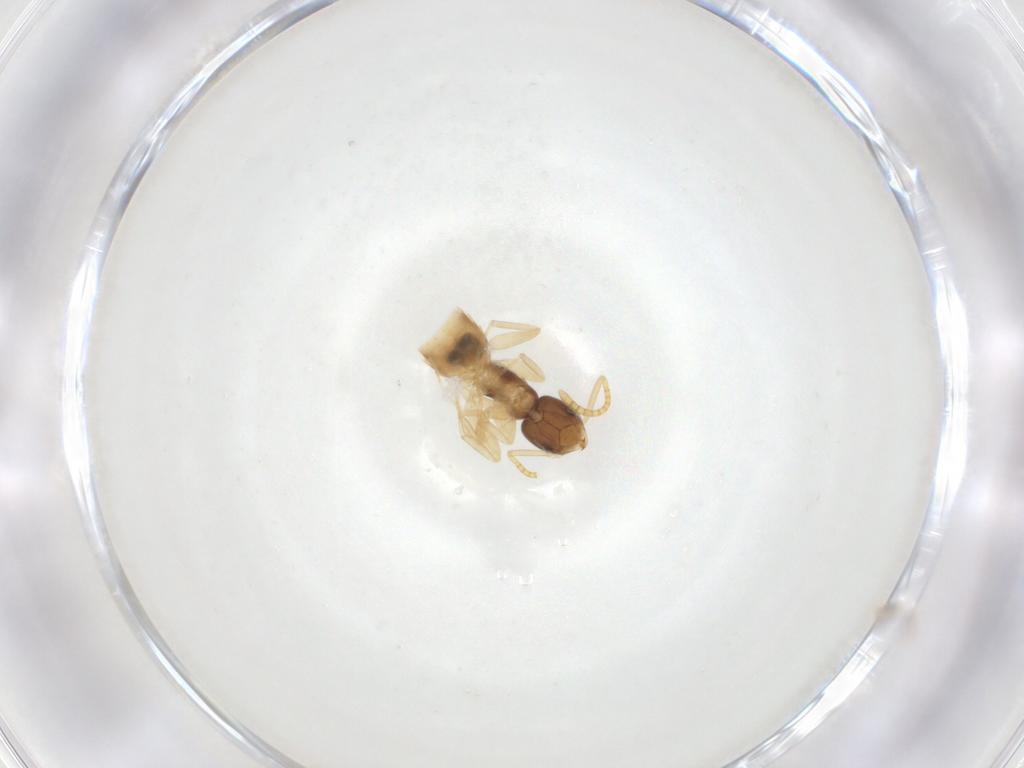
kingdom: Animalia
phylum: Arthropoda
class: Insecta
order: Hymenoptera
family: Formicidae
